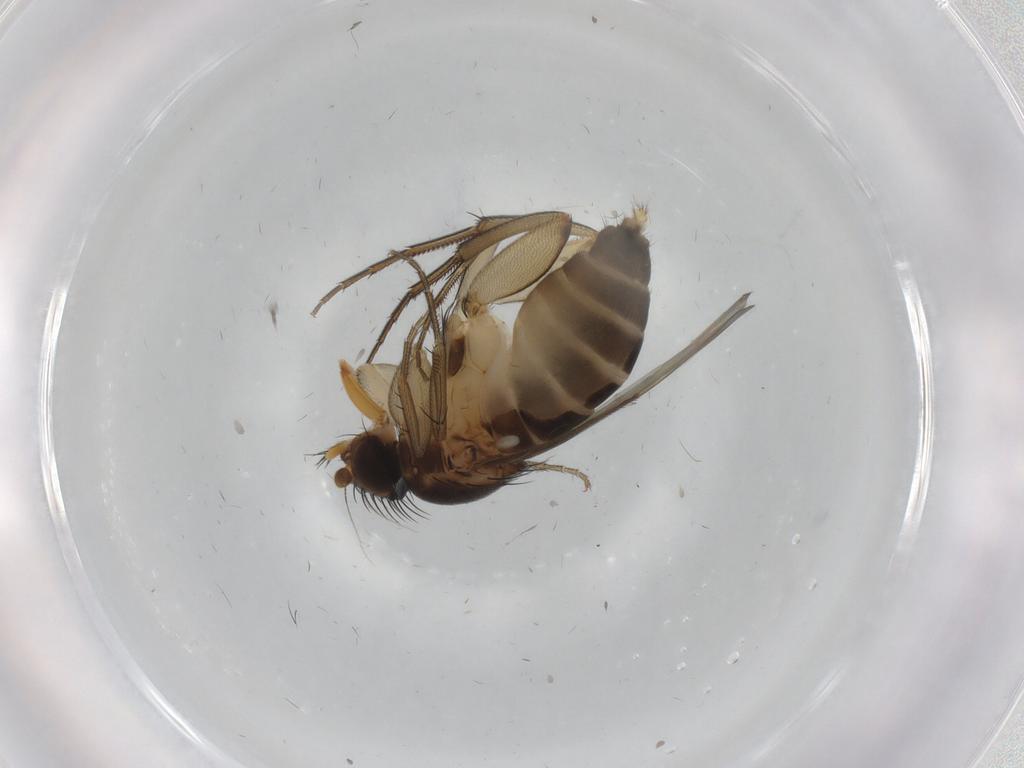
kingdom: Animalia
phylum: Arthropoda
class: Insecta
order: Diptera
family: Phoridae
